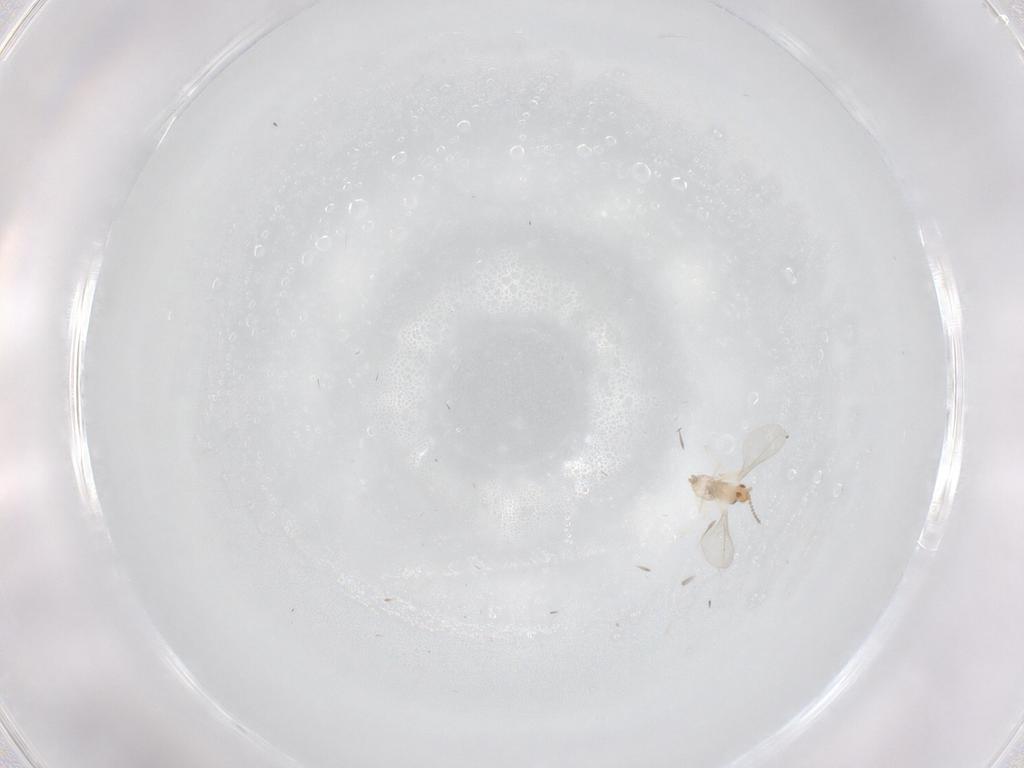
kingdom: Animalia
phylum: Arthropoda
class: Insecta
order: Diptera
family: Cecidomyiidae
